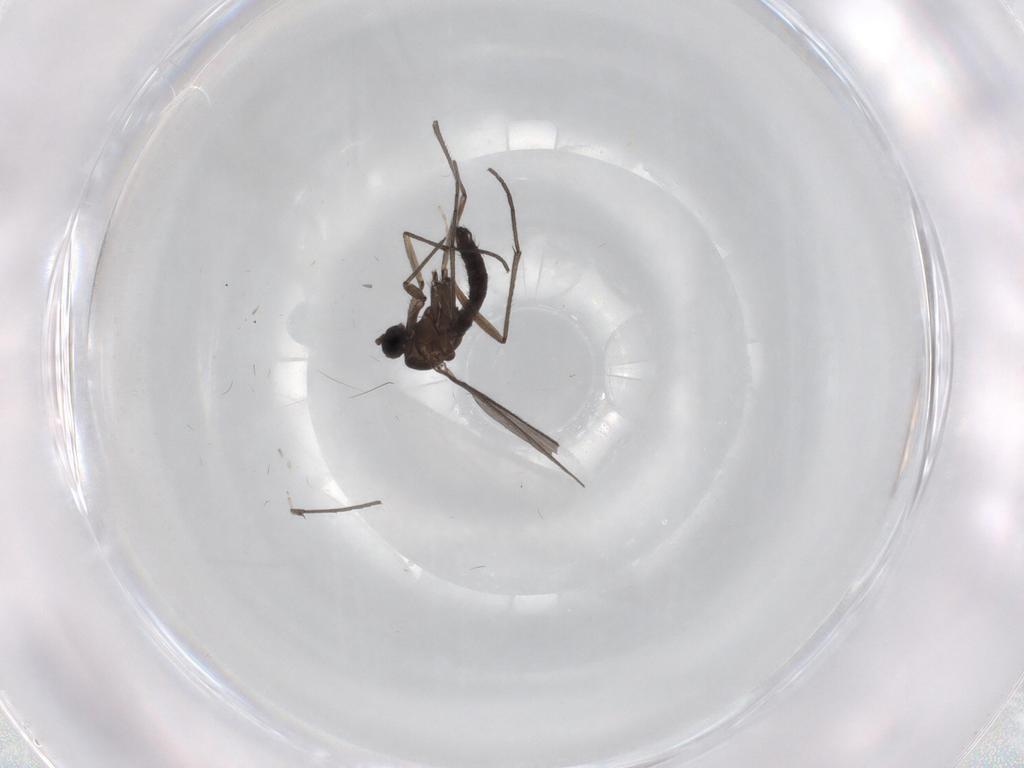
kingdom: Animalia
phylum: Arthropoda
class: Insecta
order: Diptera
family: Sciaridae
